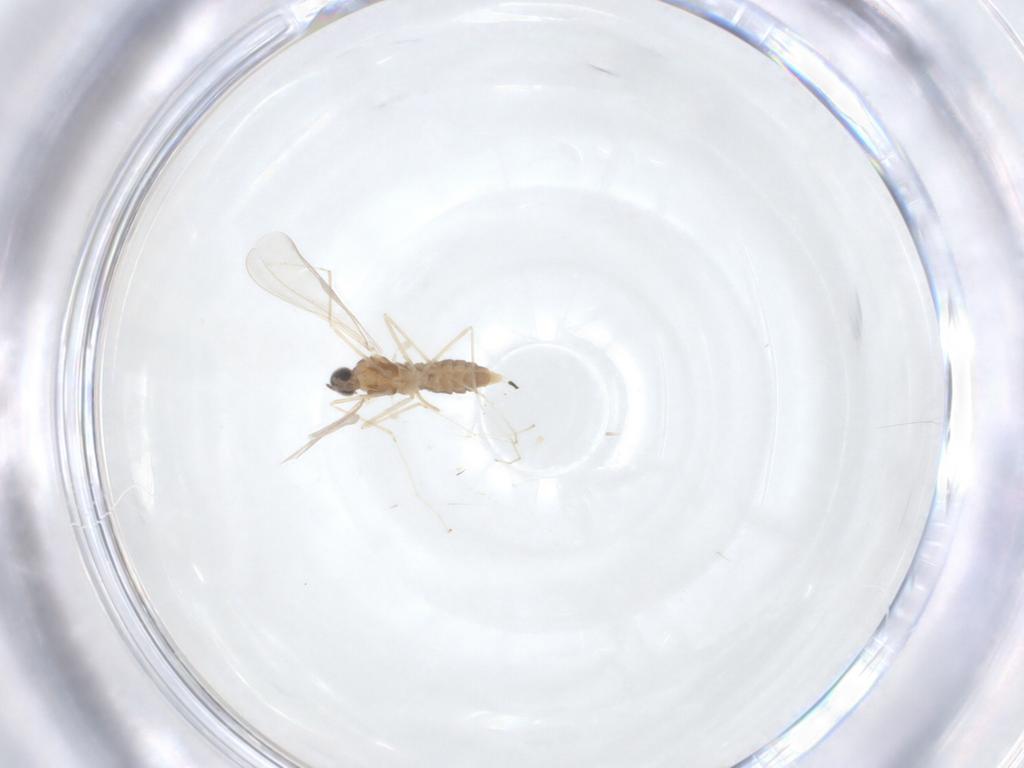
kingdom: Animalia
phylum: Arthropoda
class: Insecta
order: Diptera
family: Cecidomyiidae
